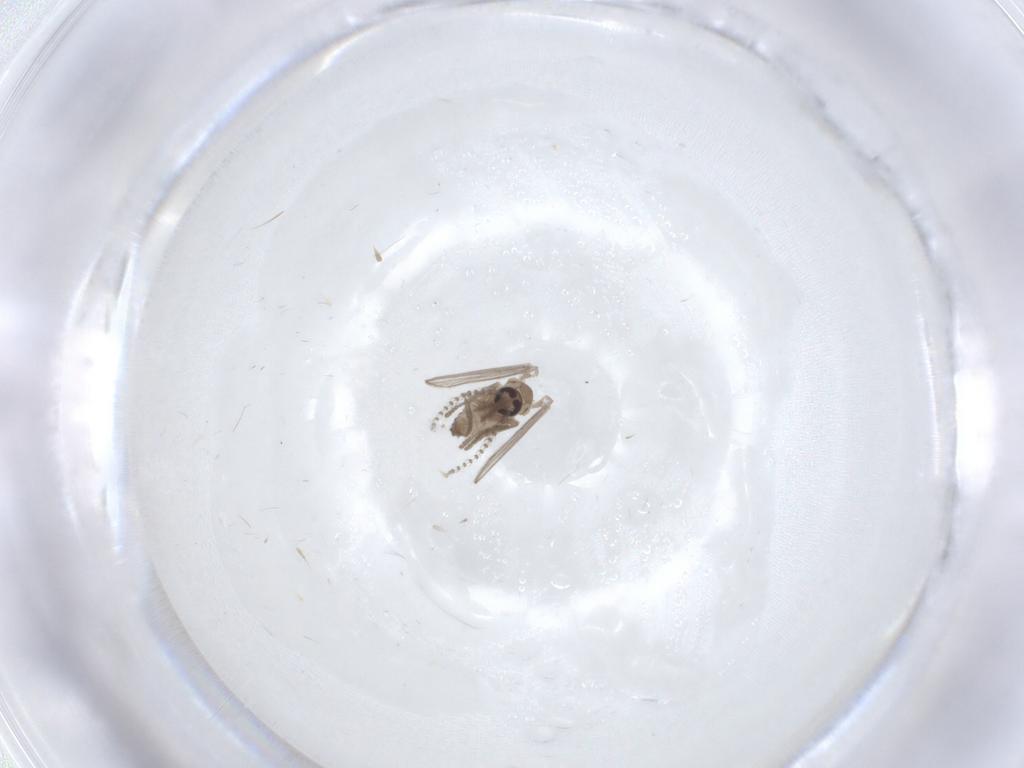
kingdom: Animalia
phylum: Arthropoda
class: Insecta
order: Diptera
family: Psychodidae
